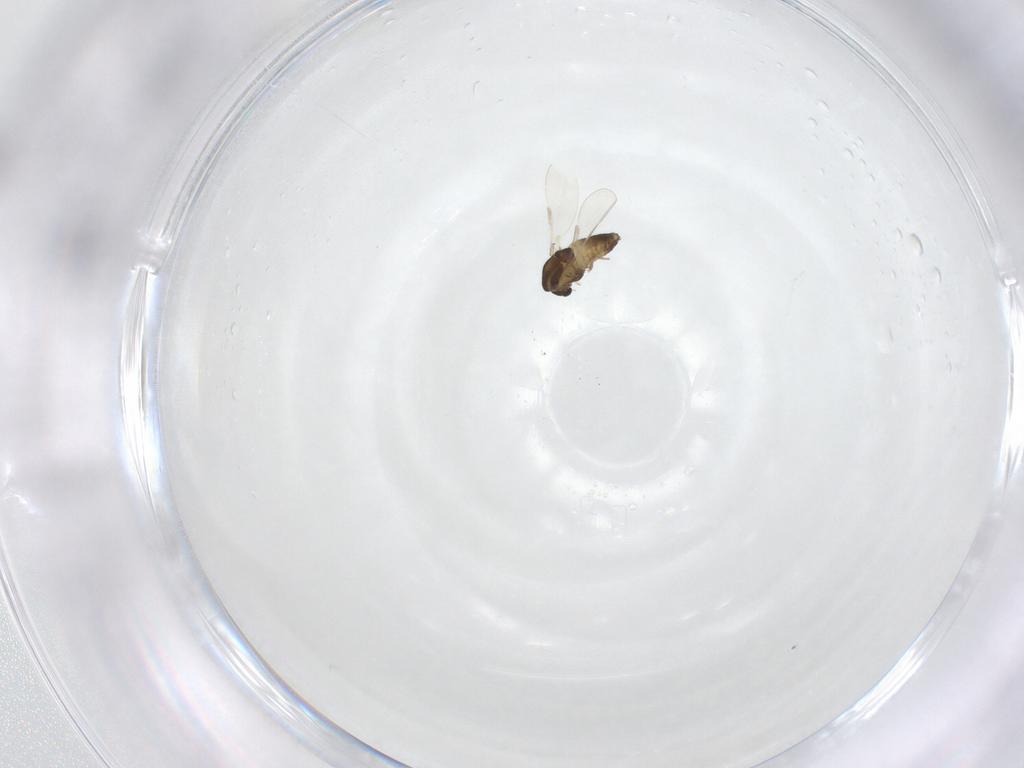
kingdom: Animalia
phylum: Arthropoda
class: Insecta
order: Diptera
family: Chironomidae
